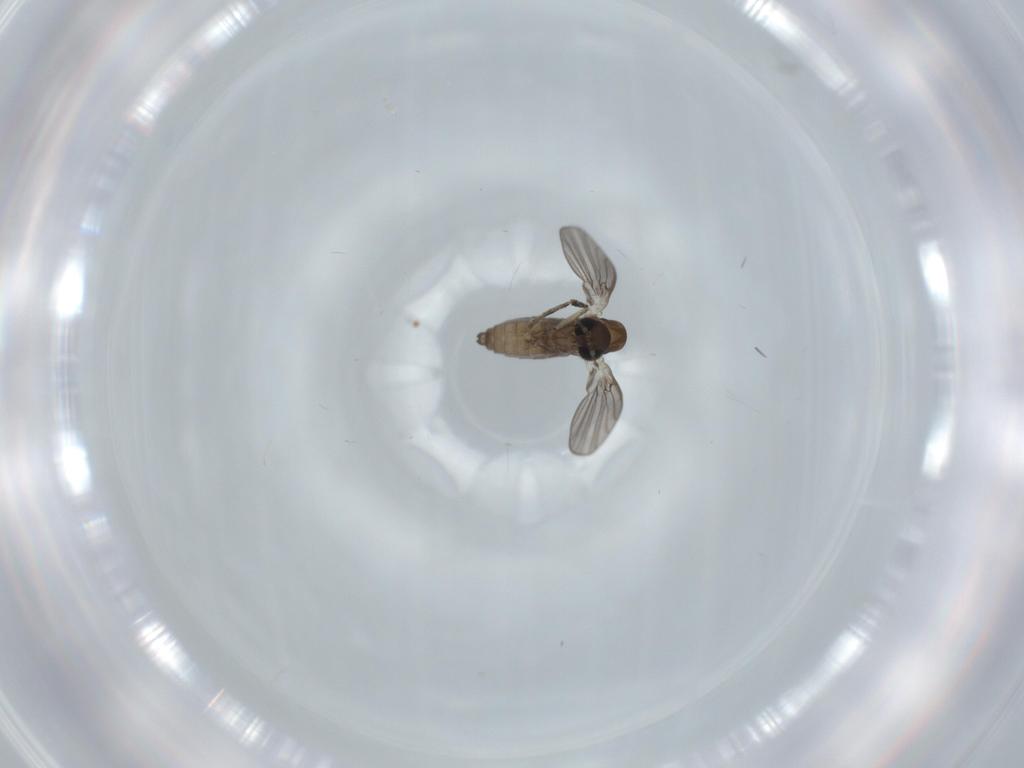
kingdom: Animalia
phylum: Arthropoda
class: Insecta
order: Diptera
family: Psychodidae
